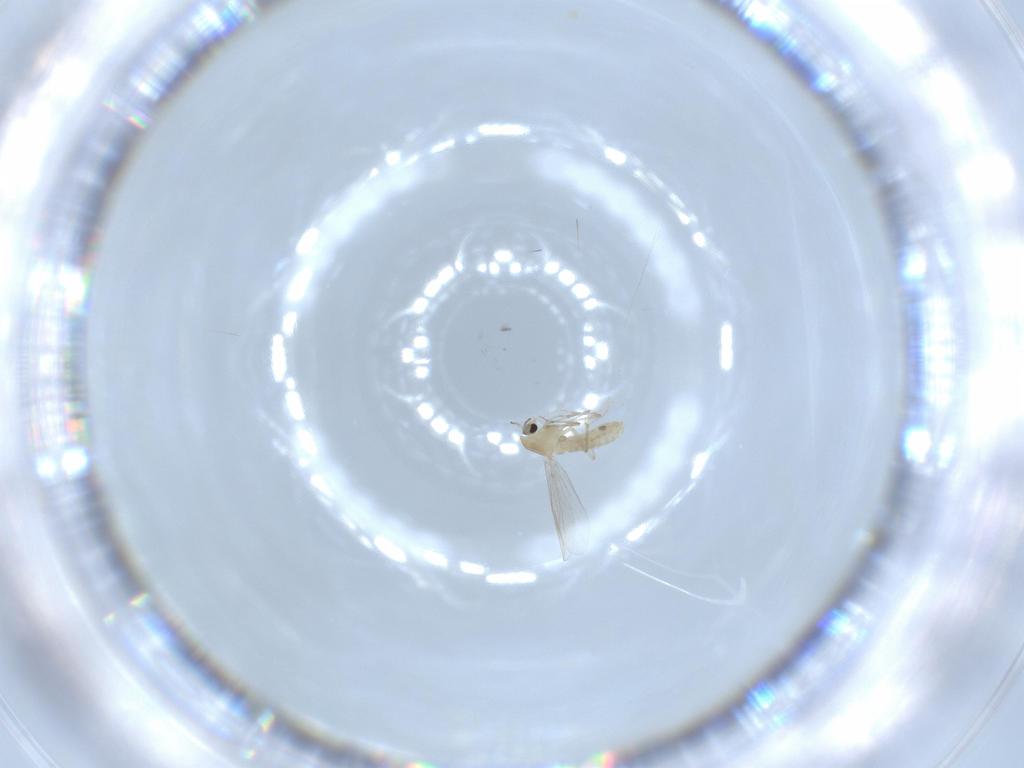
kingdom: Animalia
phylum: Arthropoda
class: Insecta
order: Diptera
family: Chironomidae
